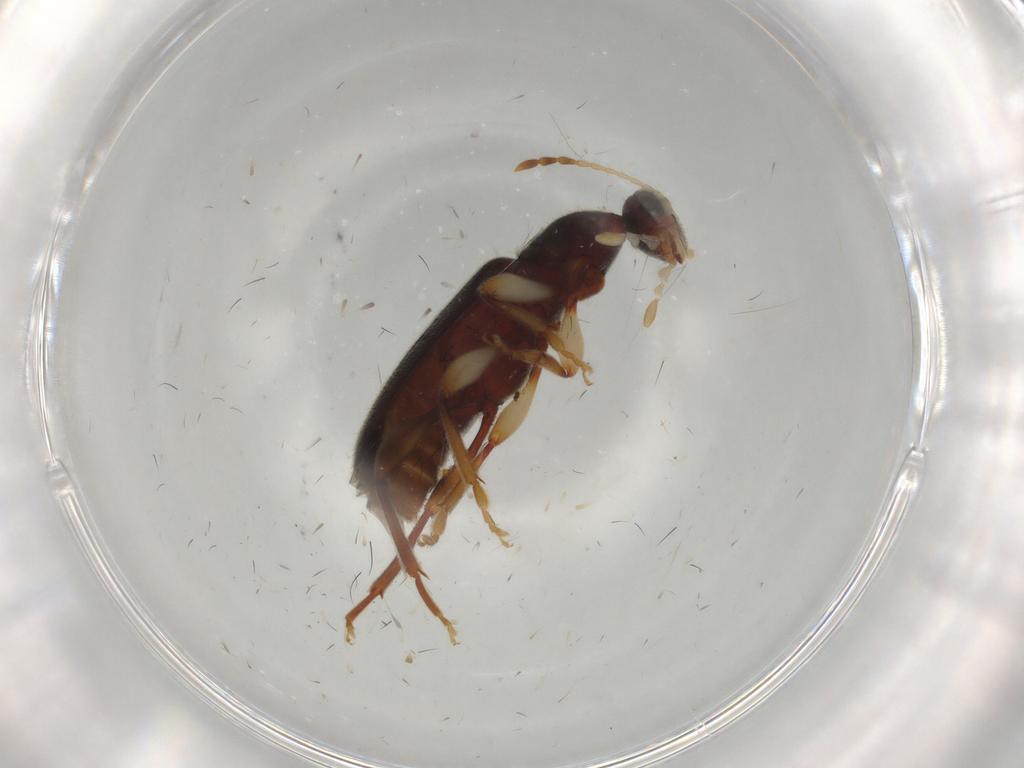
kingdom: Animalia
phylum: Arthropoda
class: Insecta
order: Coleoptera
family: Anthicidae
